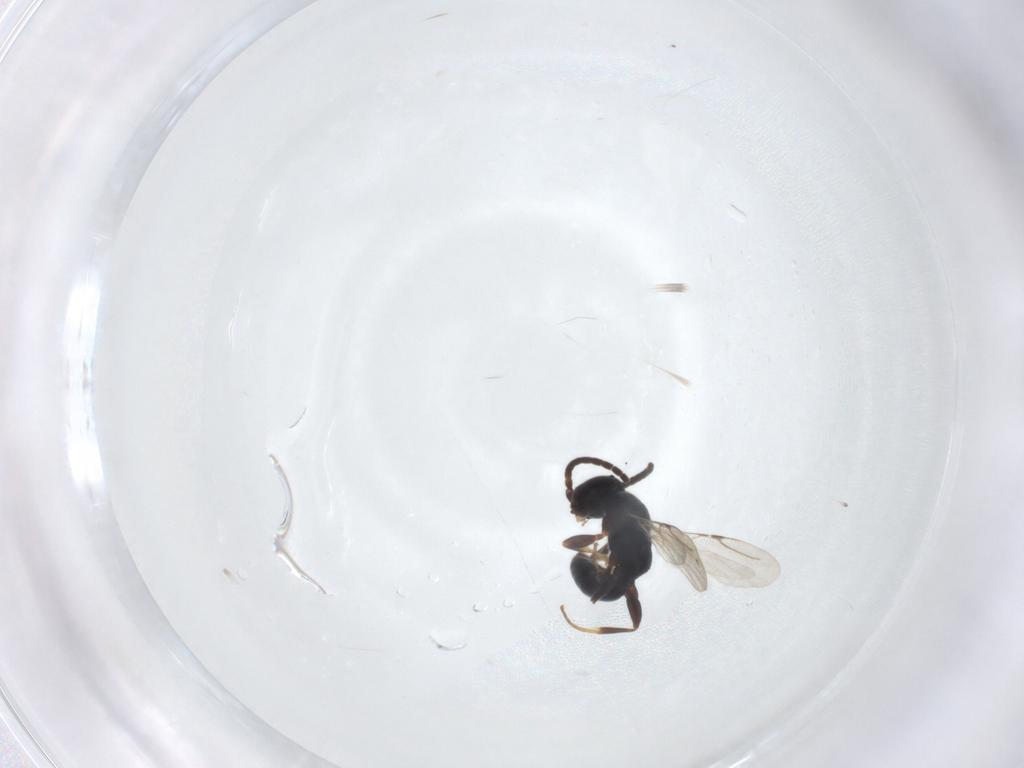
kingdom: Animalia
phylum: Arthropoda
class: Insecta
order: Hymenoptera
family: Bethylidae
